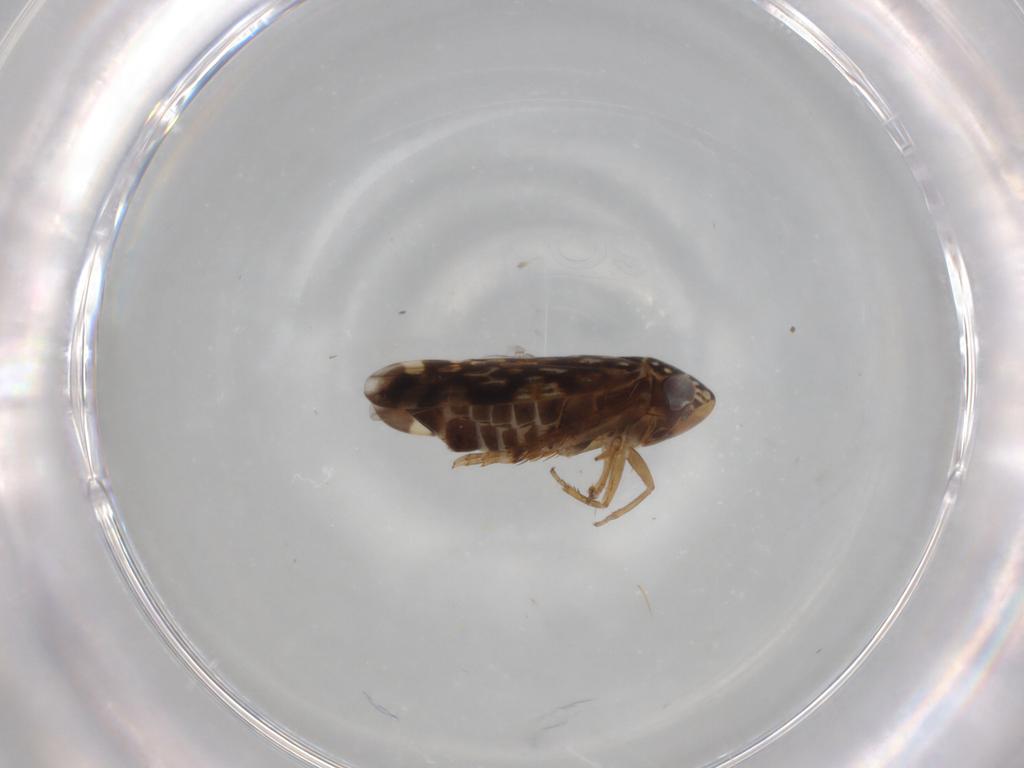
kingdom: Animalia
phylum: Arthropoda
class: Insecta
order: Hemiptera
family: Cicadellidae
